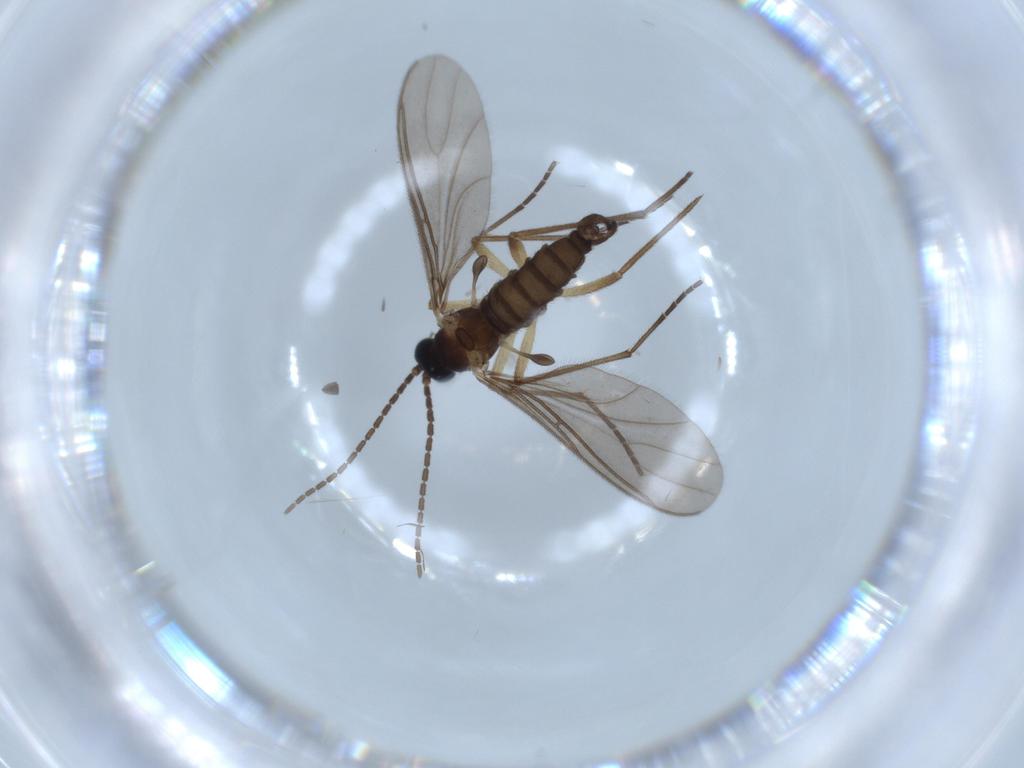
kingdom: Animalia
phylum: Arthropoda
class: Insecta
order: Diptera
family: Sciaridae
